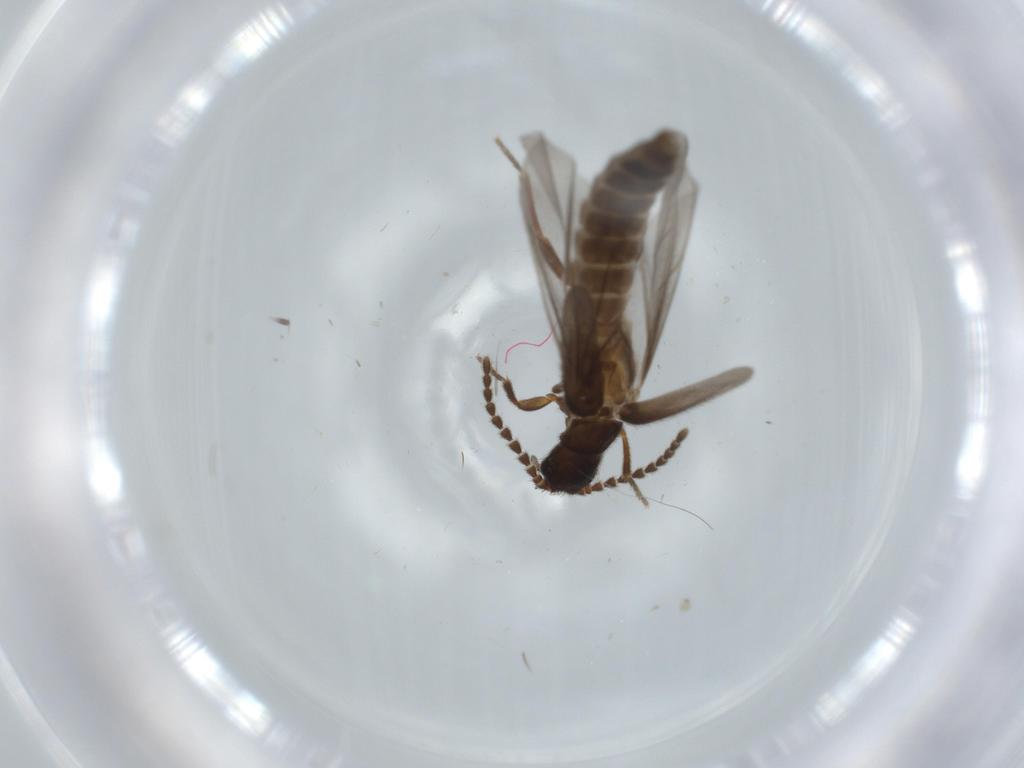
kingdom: Animalia
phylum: Arthropoda
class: Insecta
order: Coleoptera
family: Omethidae
